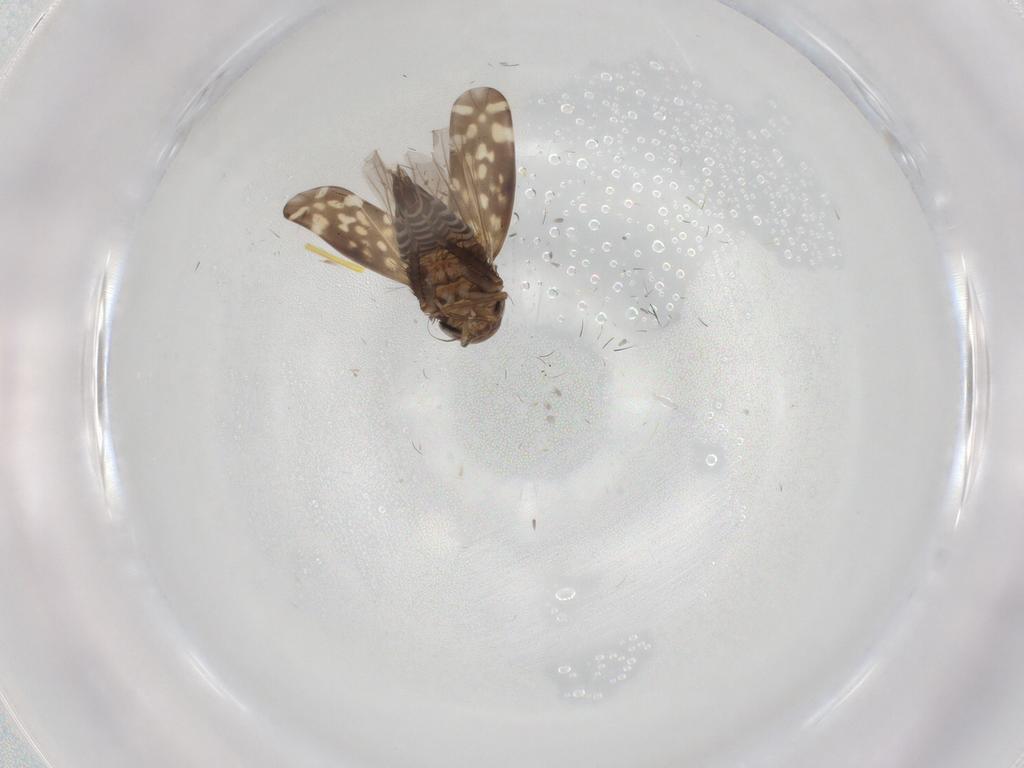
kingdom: Animalia
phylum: Arthropoda
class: Insecta
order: Hemiptera
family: Cicadellidae
